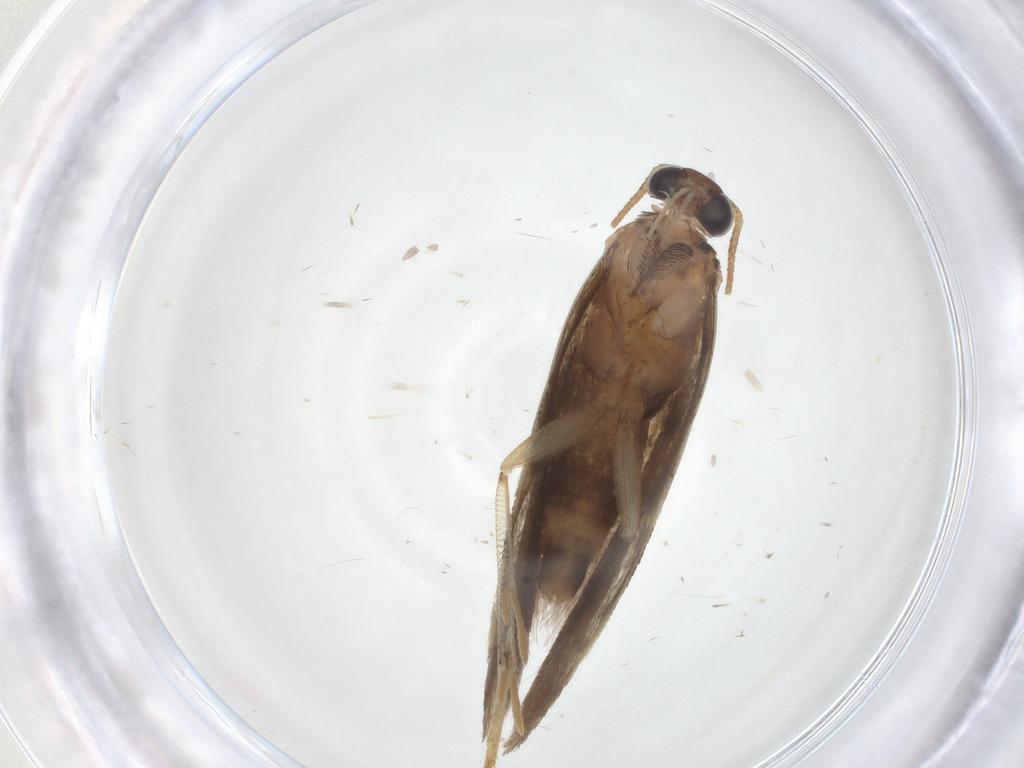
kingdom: Animalia
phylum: Arthropoda
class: Insecta
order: Lepidoptera
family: Gelechiidae
